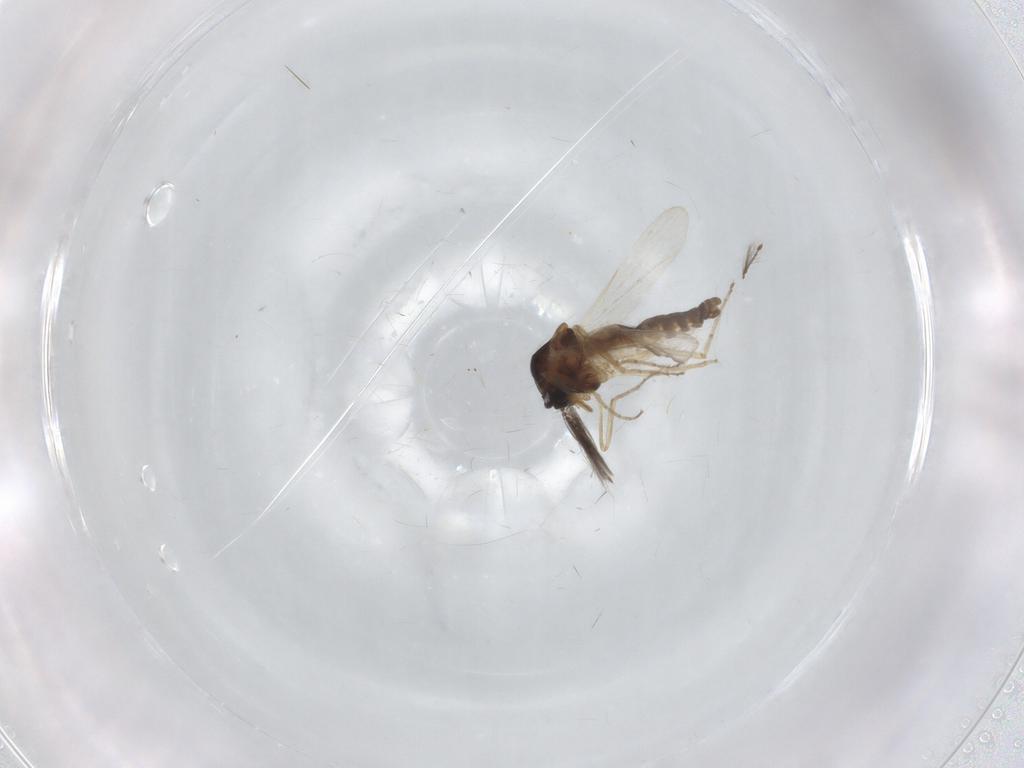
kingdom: Animalia
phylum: Arthropoda
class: Insecta
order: Diptera
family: Ceratopogonidae
